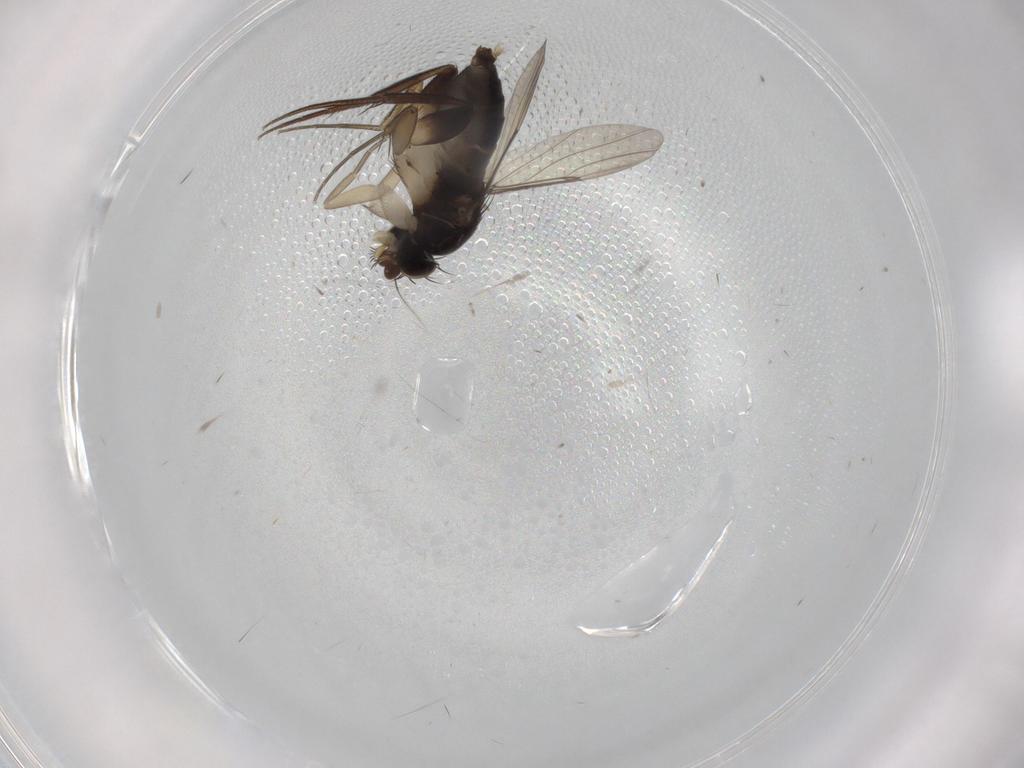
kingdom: Animalia
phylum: Arthropoda
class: Insecta
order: Diptera
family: Phoridae
